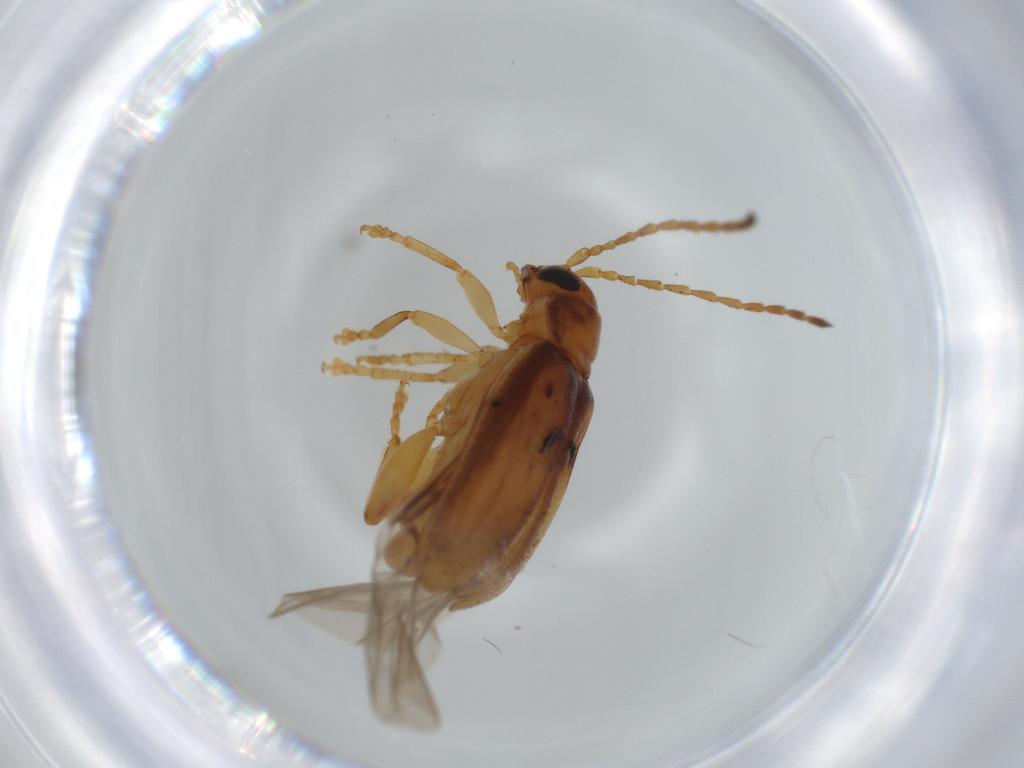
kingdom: Animalia
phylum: Arthropoda
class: Insecta
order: Coleoptera
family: Chrysomelidae
